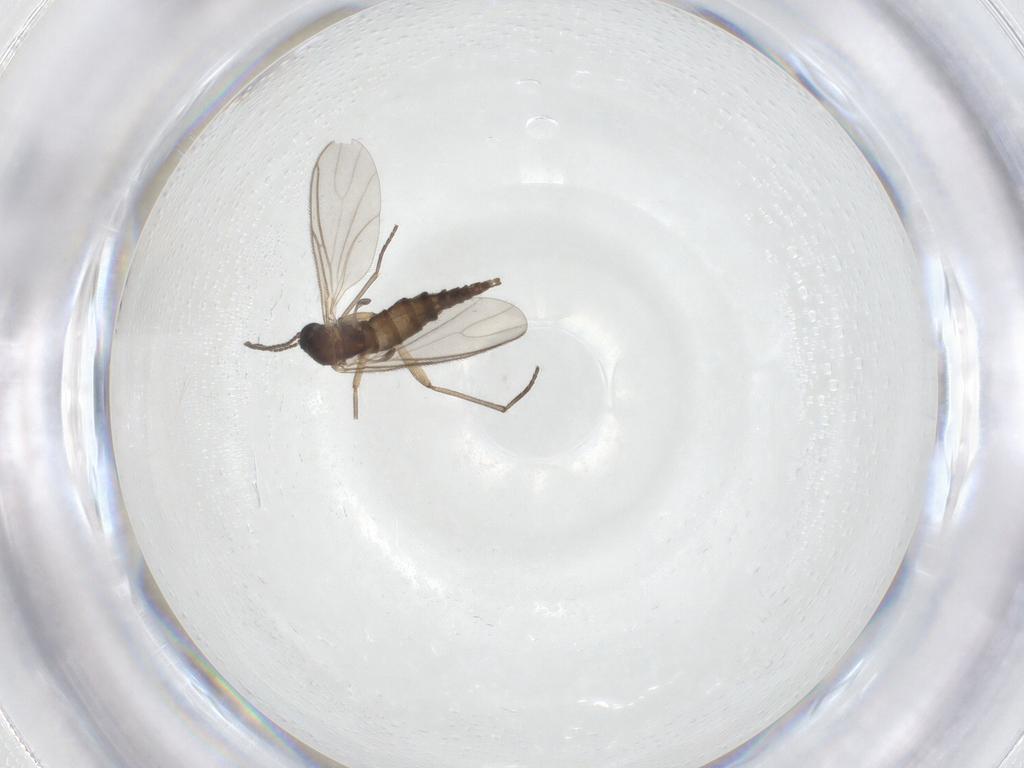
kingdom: Animalia
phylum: Arthropoda
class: Insecta
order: Diptera
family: Sciaridae
